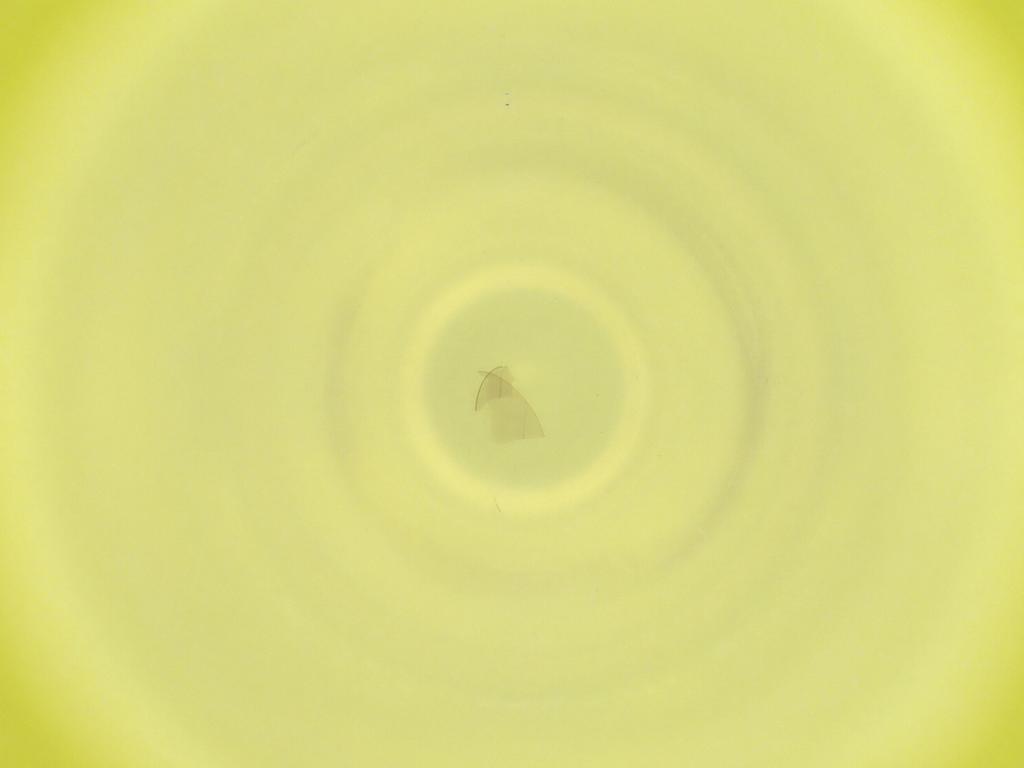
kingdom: Animalia
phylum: Arthropoda
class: Insecta
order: Diptera
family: Cecidomyiidae
